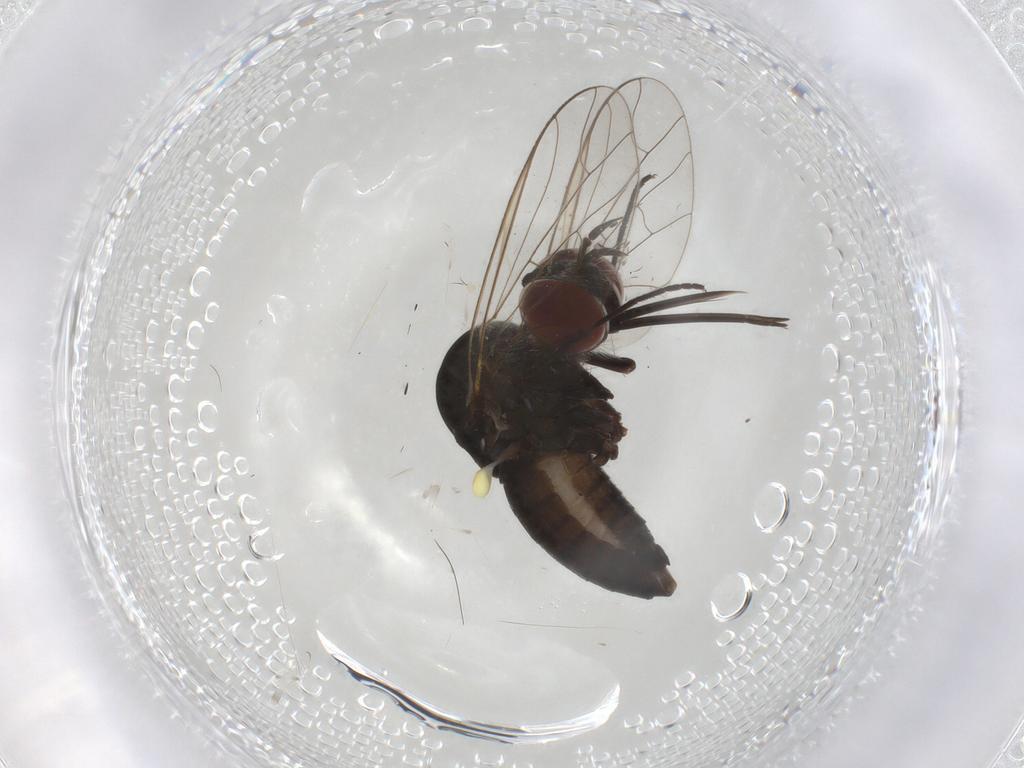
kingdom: Animalia
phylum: Arthropoda
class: Insecta
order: Diptera
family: Bombyliidae
